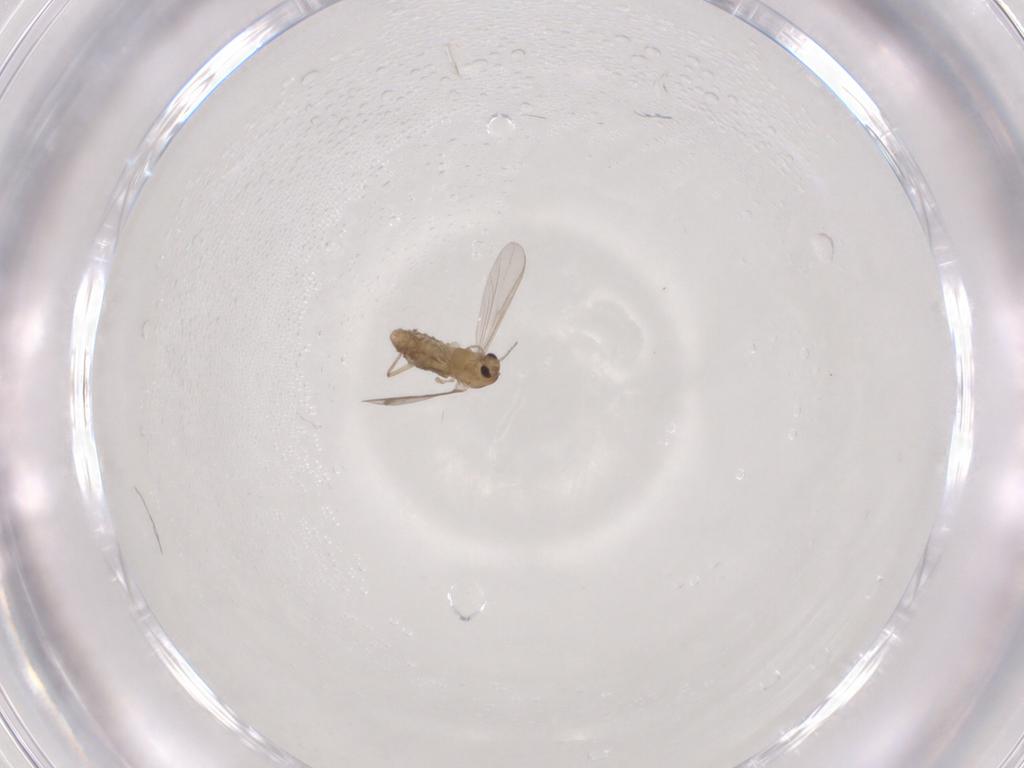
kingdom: Animalia
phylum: Arthropoda
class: Insecta
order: Diptera
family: Chironomidae
